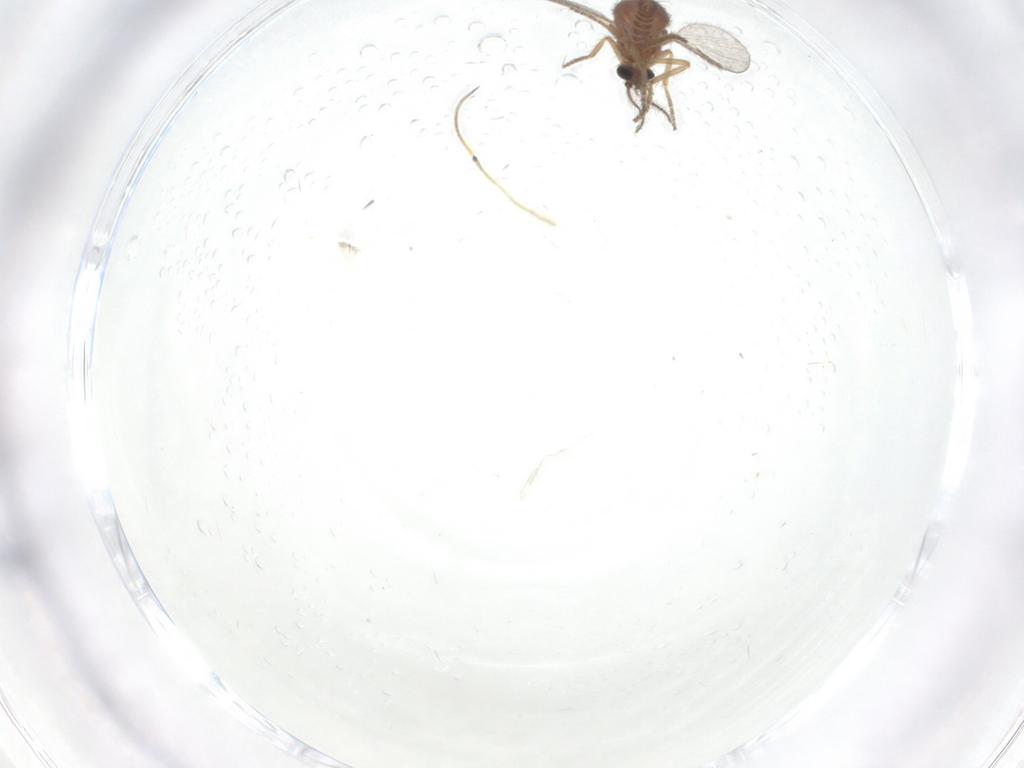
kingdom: Animalia
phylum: Arthropoda
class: Insecta
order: Diptera
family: Ceratopogonidae
